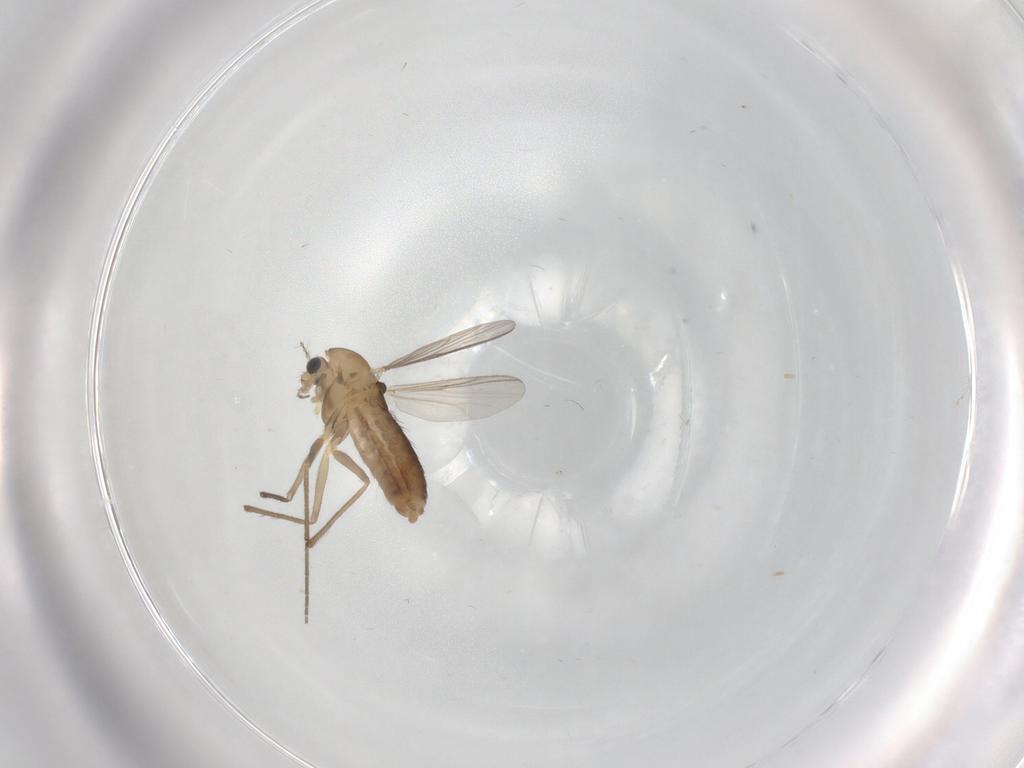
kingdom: Animalia
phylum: Arthropoda
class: Insecta
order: Diptera
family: Chironomidae
